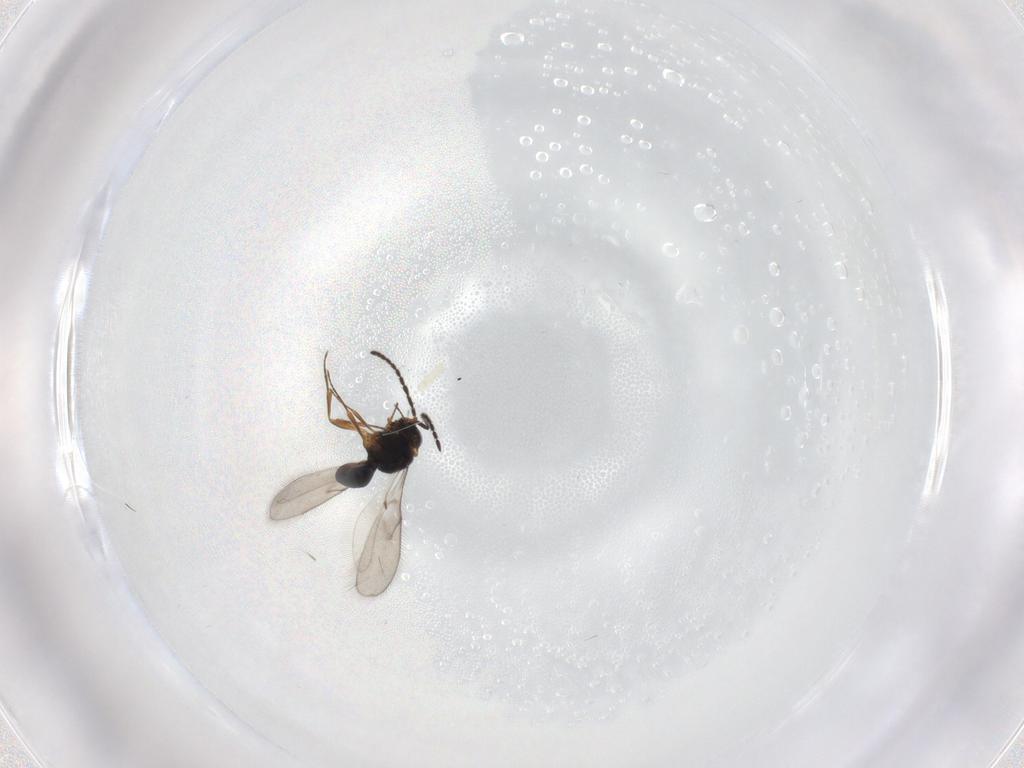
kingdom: Animalia
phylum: Arthropoda
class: Insecta
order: Hymenoptera
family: Scelionidae
